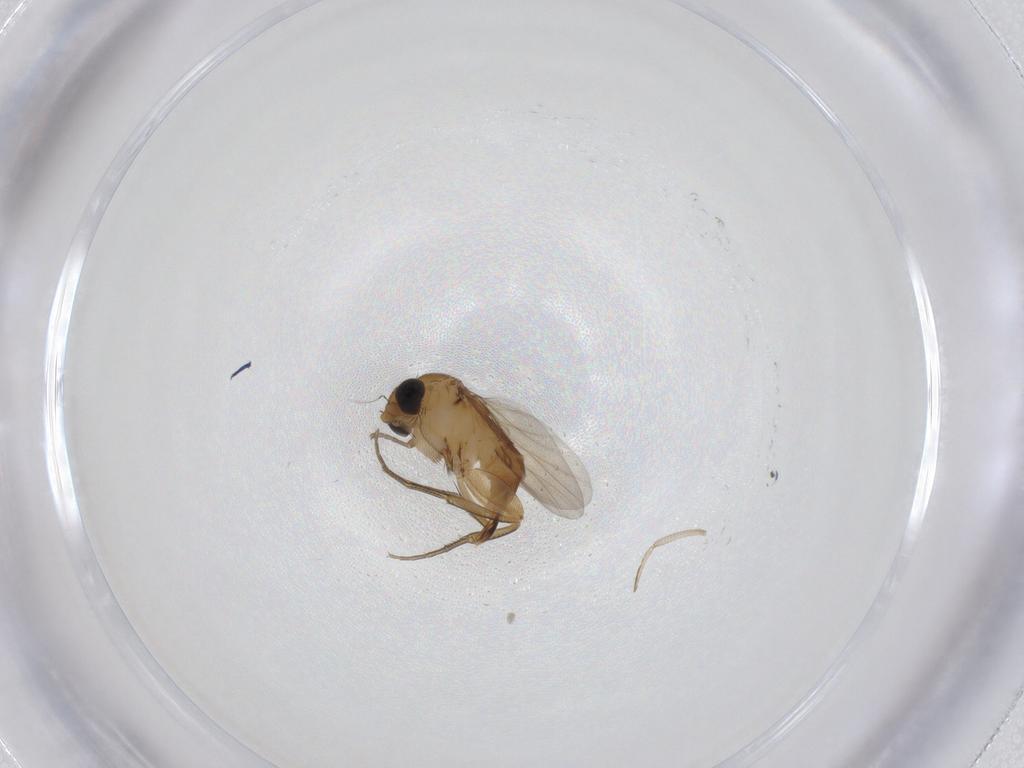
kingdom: Animalia
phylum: Arthropoda
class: Insecta
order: Diptera
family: Phoridae
